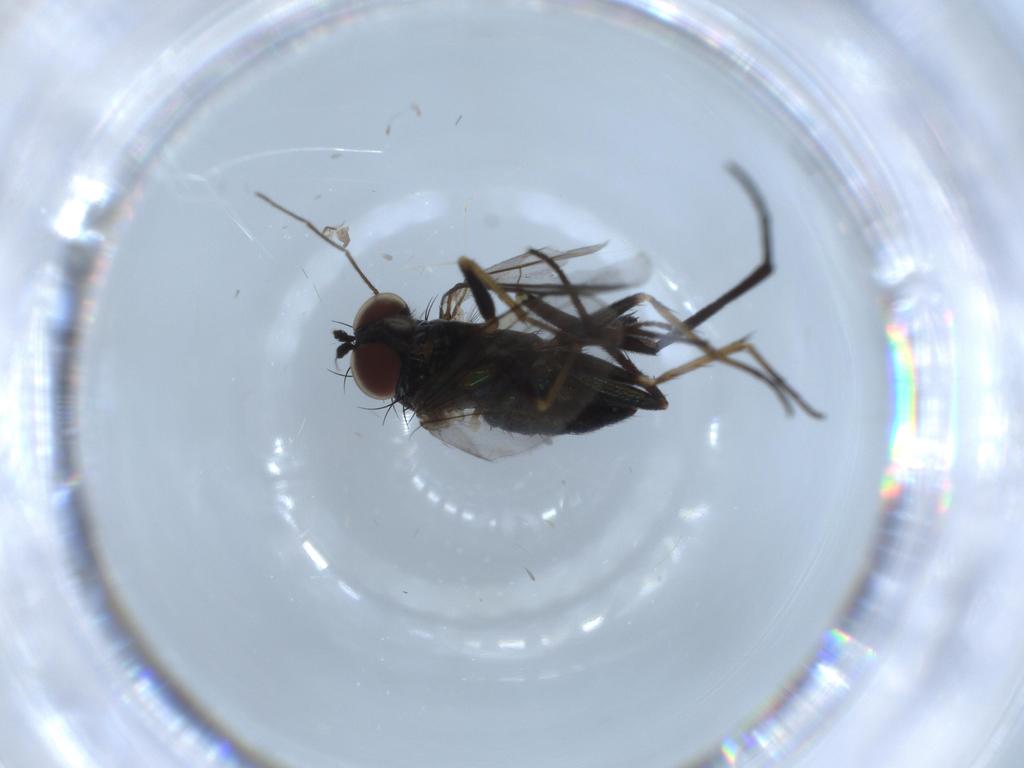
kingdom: Animalia
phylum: Arthropoda
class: Insecta
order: Diptera
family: Dolichopodidae
